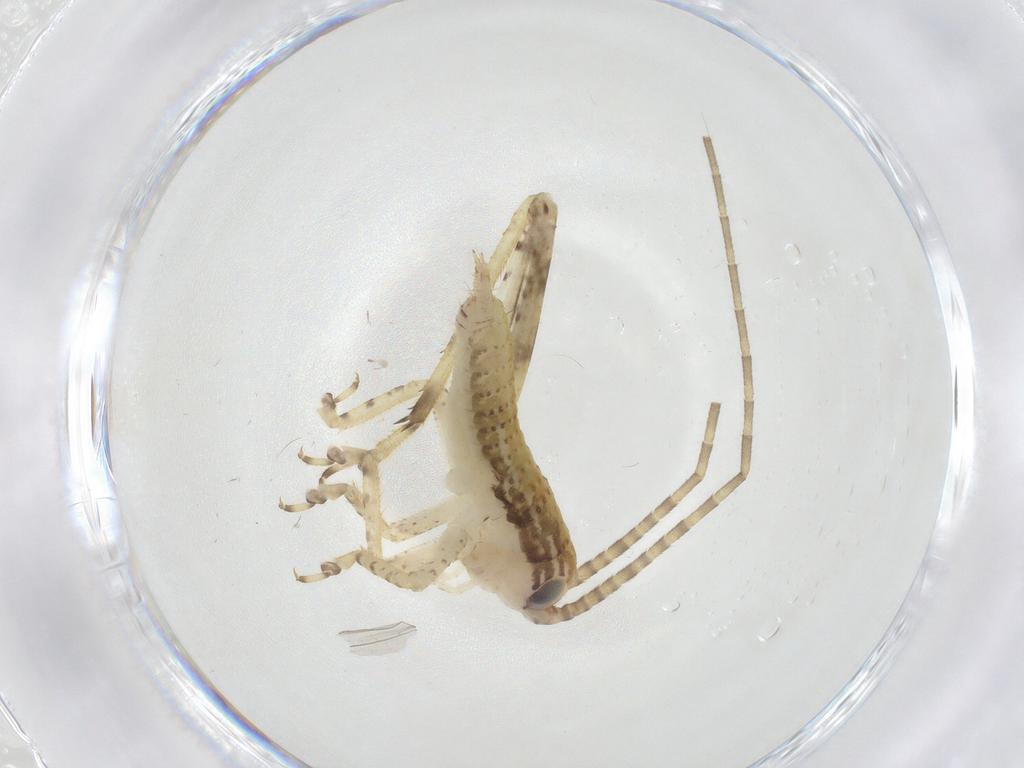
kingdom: Animalia
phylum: Arthropoda
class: Insecta
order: Orthoptera
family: Gryllidae
